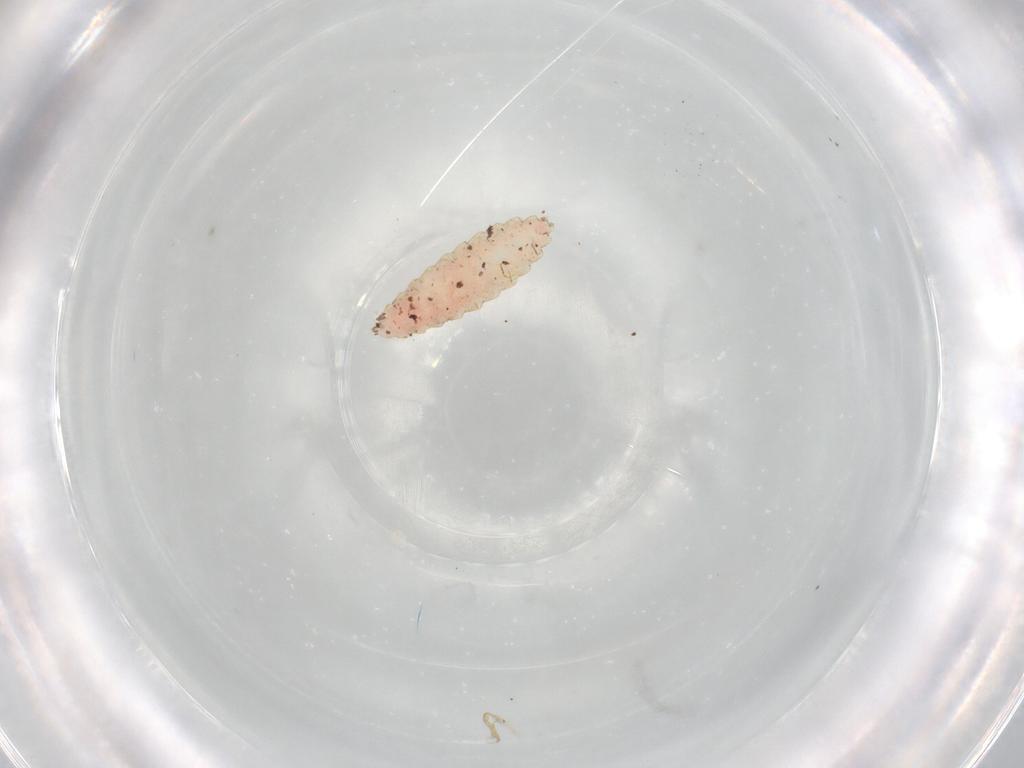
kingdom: Animalia
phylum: Arthropoda
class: Insecta
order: Diptera
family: Cecidomyiidae
